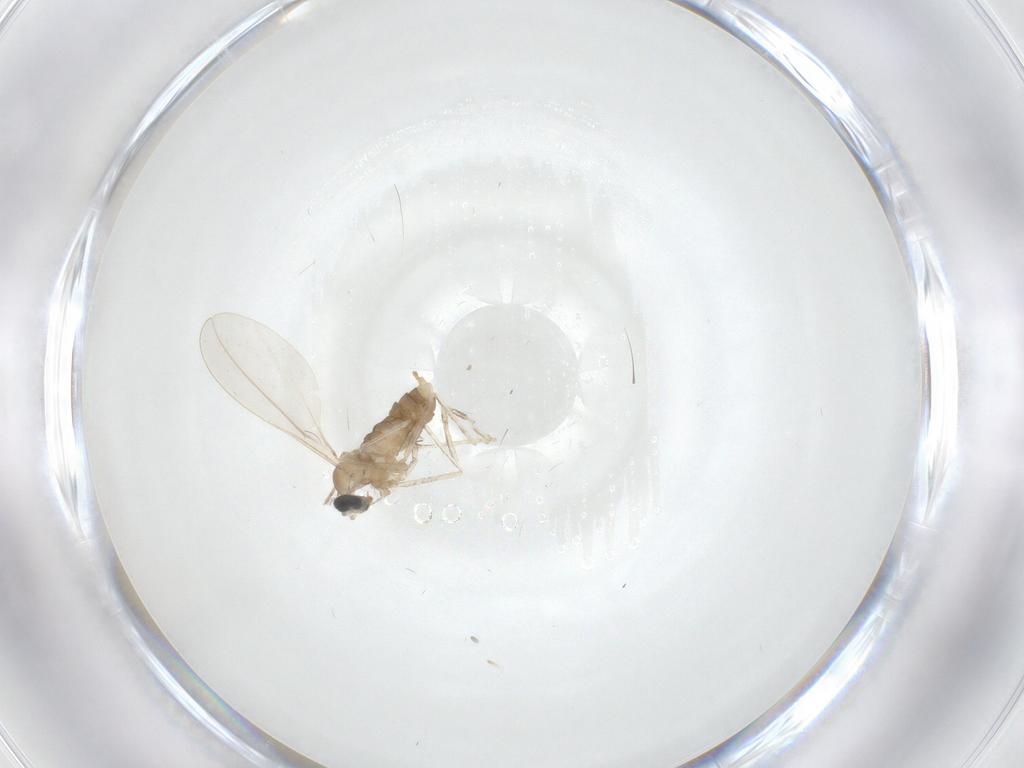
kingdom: Animalia
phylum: Arthropoda
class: Insecta
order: Diptera
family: Cecidomyiidae
